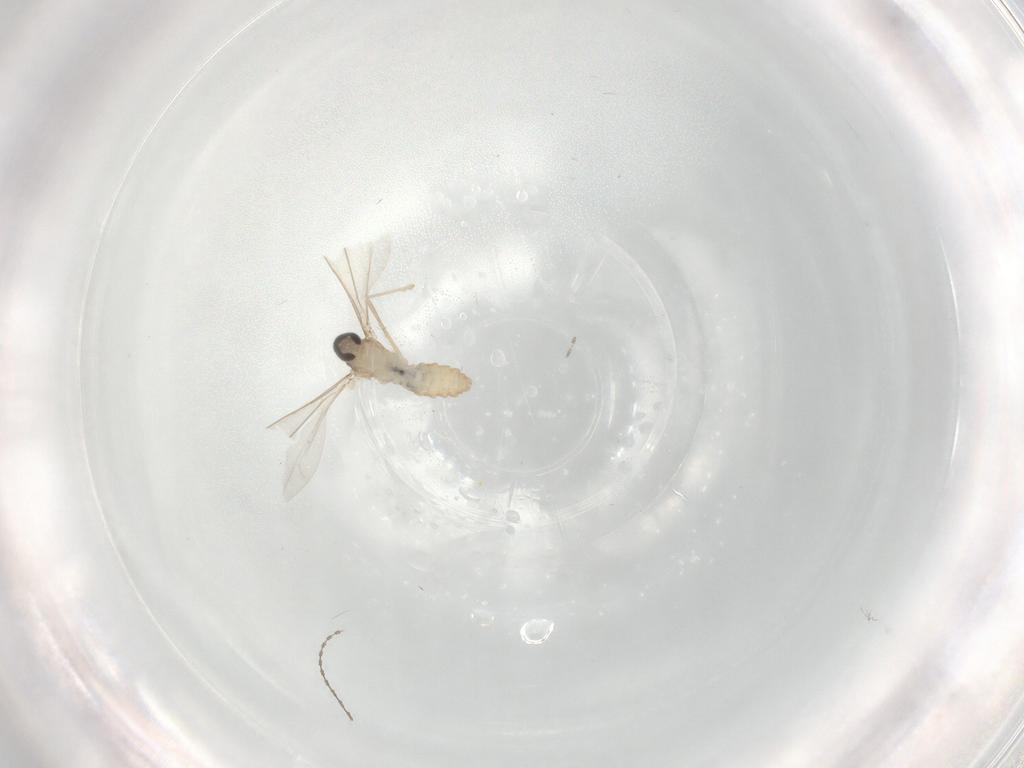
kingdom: Animalia
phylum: Arthropoda
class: Insecta
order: Diptera
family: Cecidomyiidae
